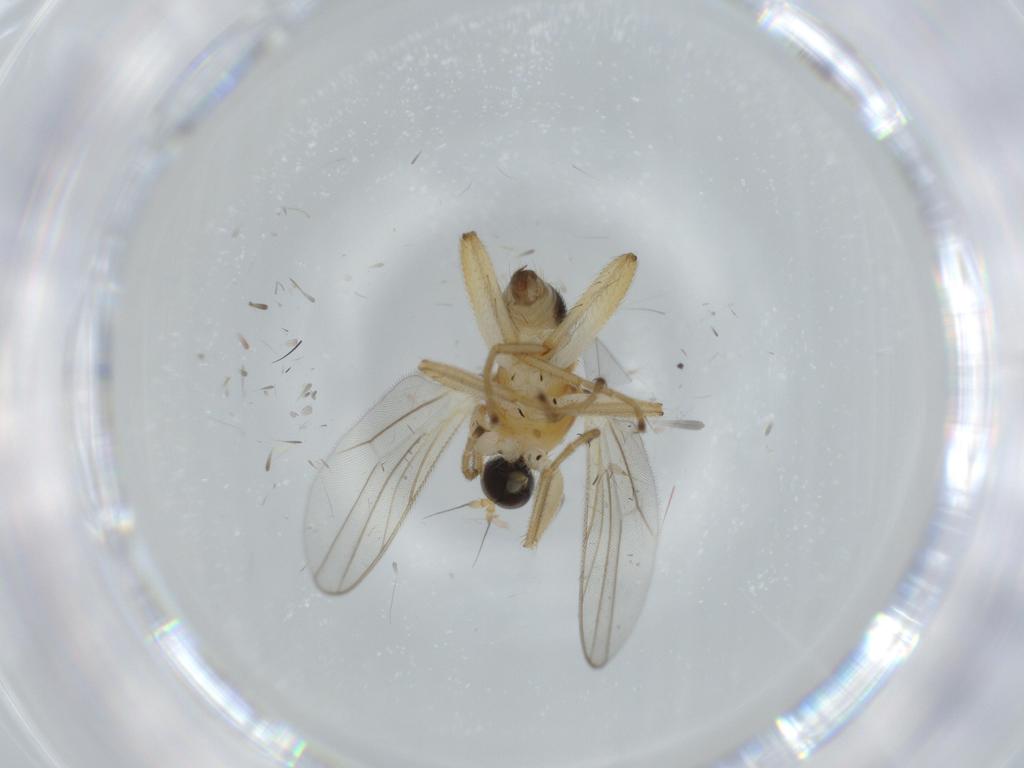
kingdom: Animalia
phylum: Arthropoda
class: Insecta
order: Diptera
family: Hybotidae
